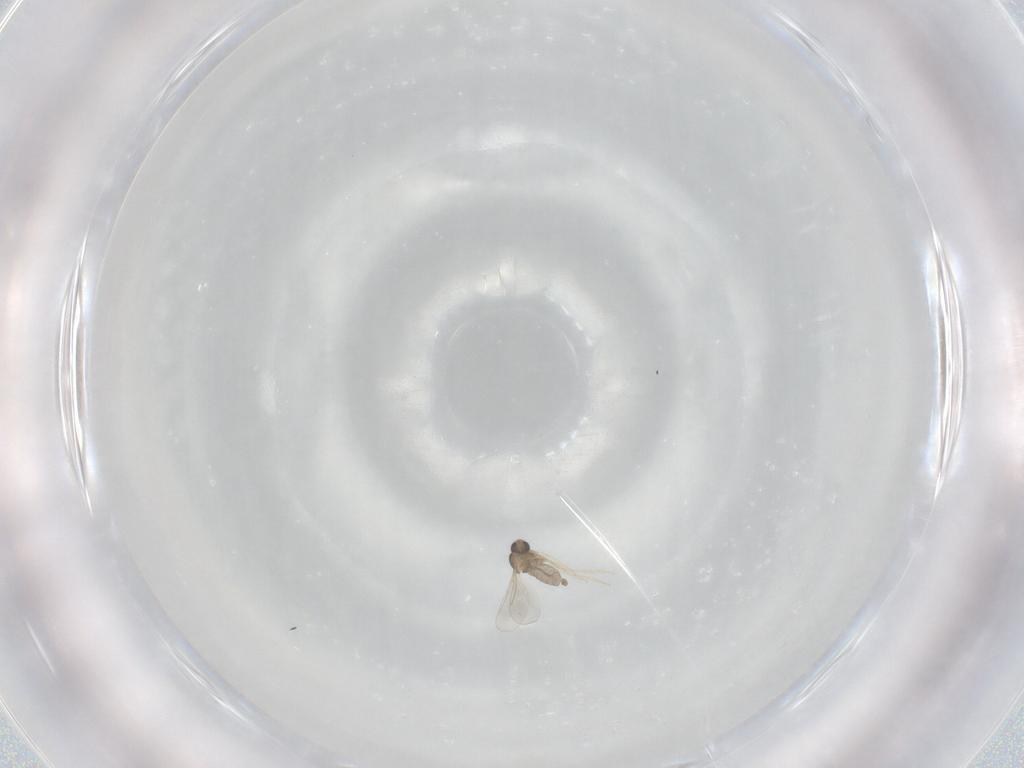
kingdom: Animalia
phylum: Arthropoda
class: Insecta
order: Diptera
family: Cecidomyiidae
